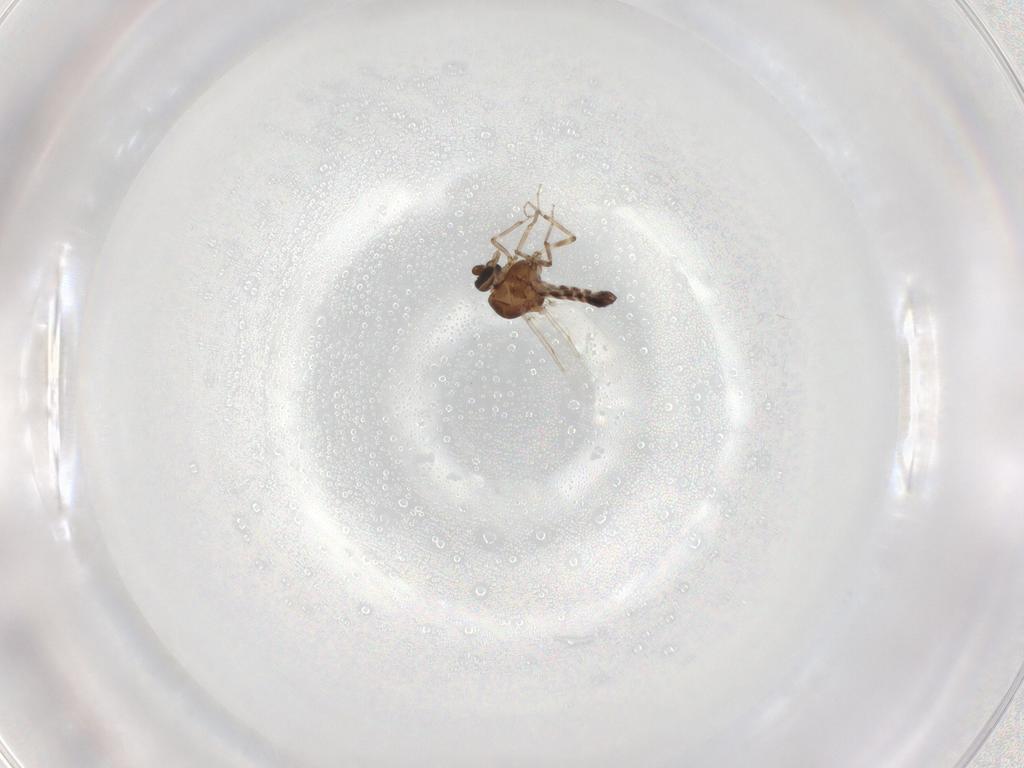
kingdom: Animalia
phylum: Arthropoda
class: Insecta
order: Diptera
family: Ceratopogonidae
